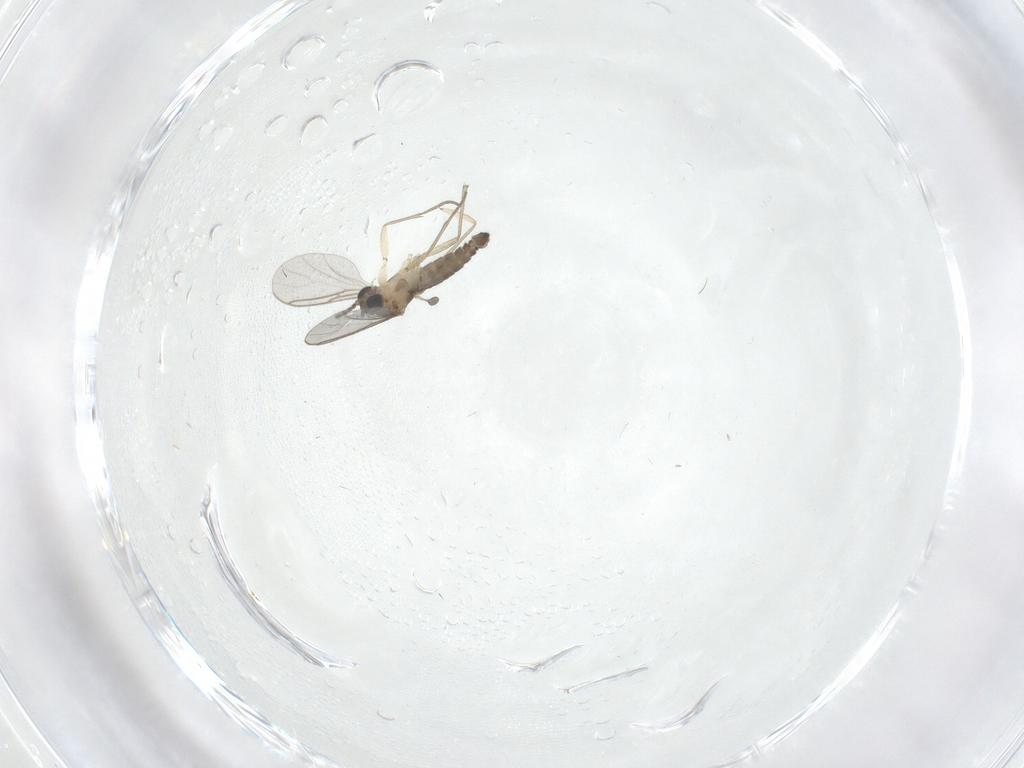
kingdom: Animalia
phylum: Arthropoda
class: Insecta
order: Diptera
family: Sciaridae
